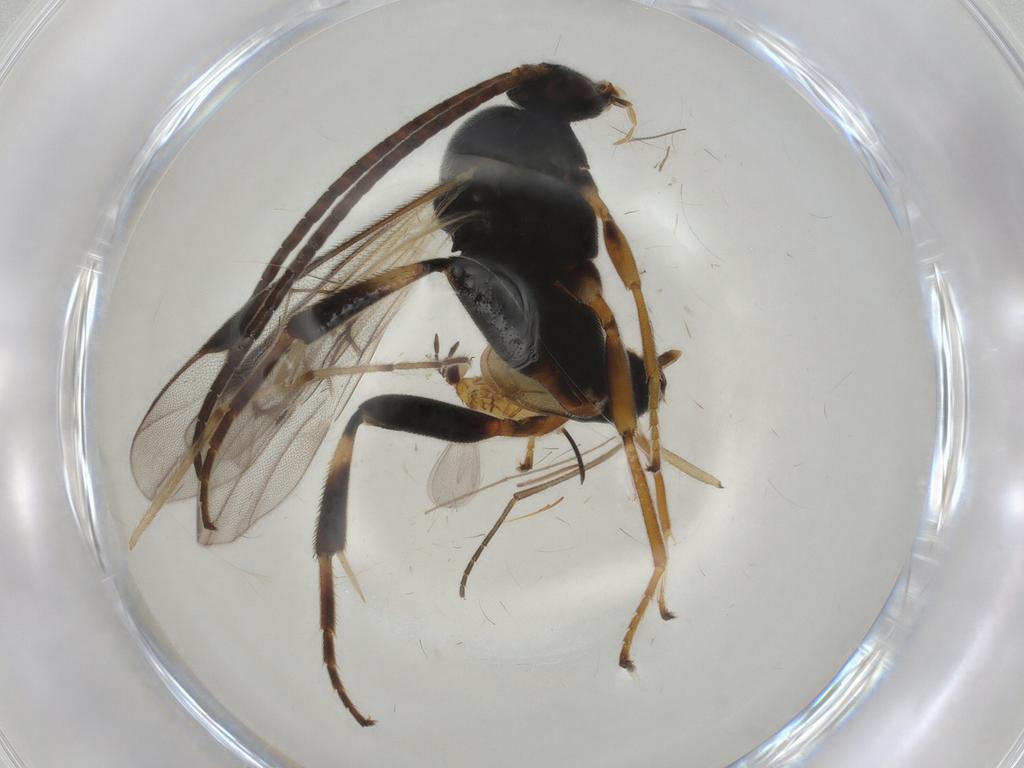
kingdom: Animalia
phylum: Arthropoda
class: Insecta
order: Hymenoptera
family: Braconidae
